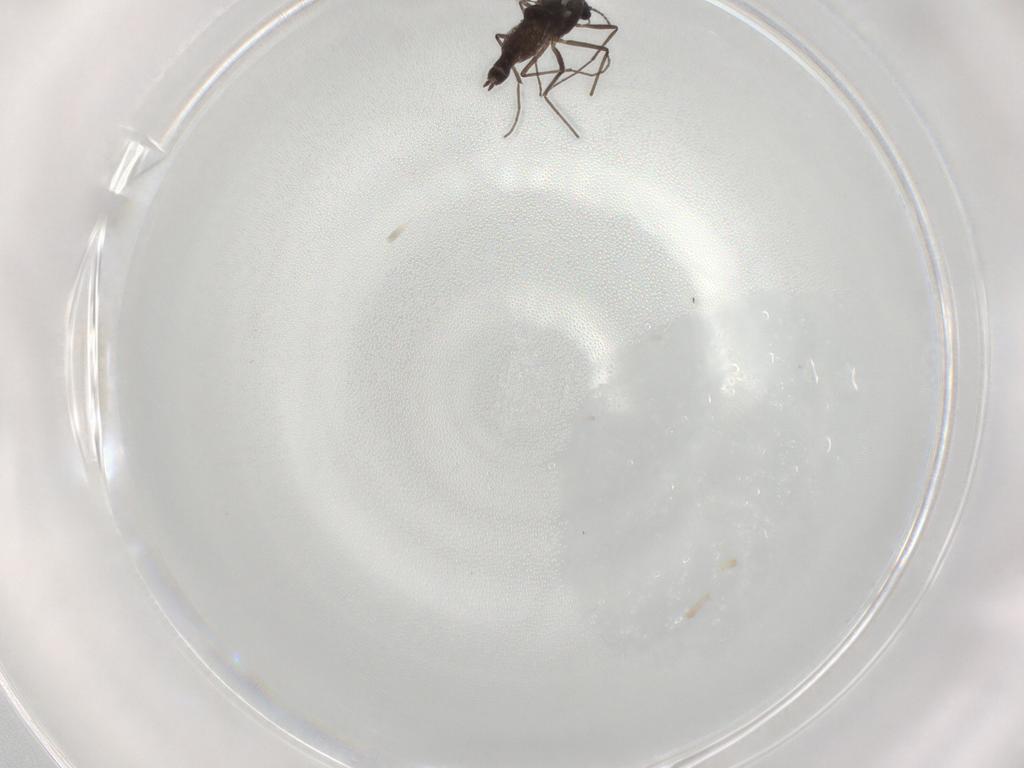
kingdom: Animalia
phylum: Arthropoda
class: Insecta
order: Diptera
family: Chironomidae
